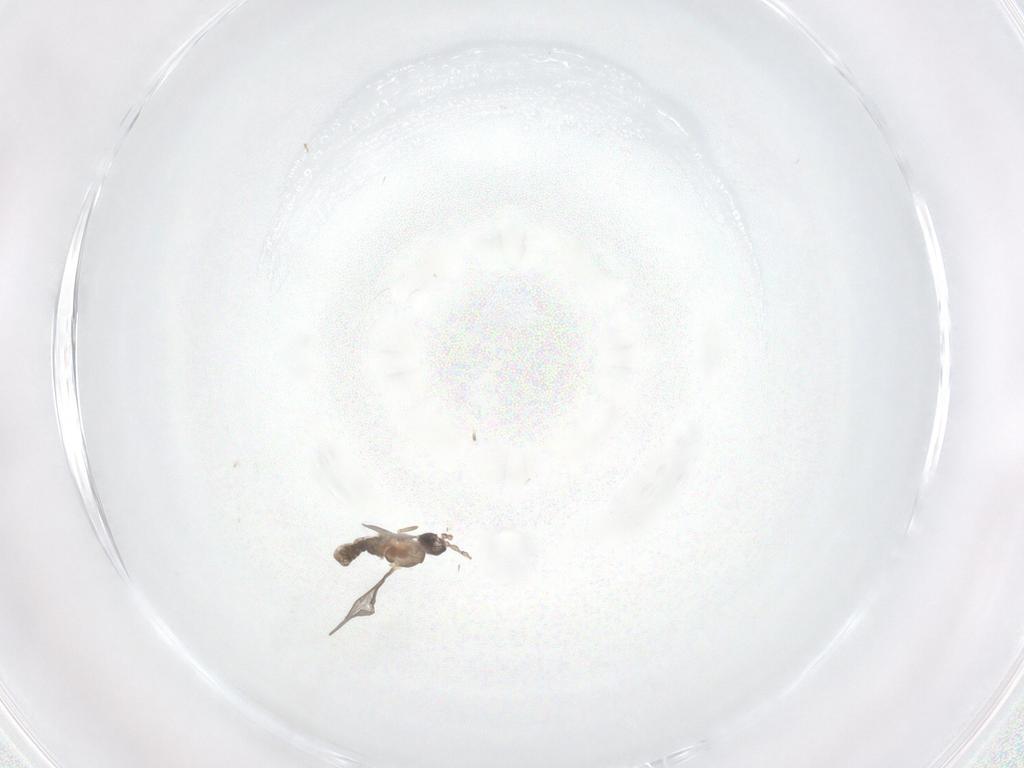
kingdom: Animalia
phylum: Arthropoda
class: Insecta
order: Diptera
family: Cecidomyiidae
